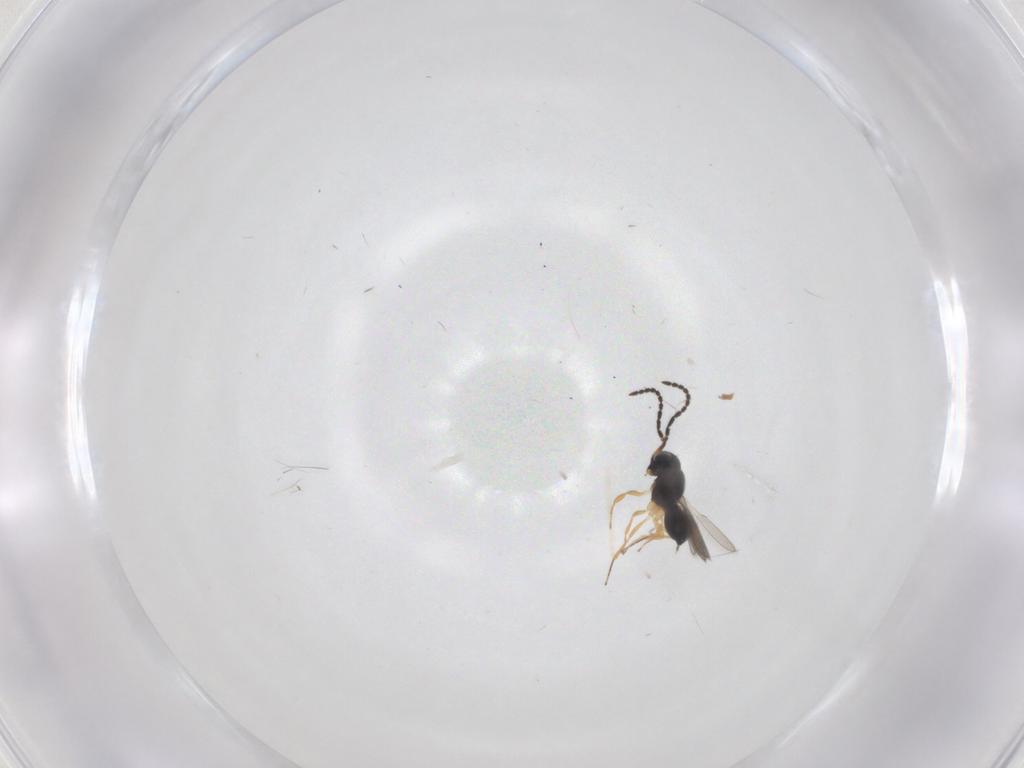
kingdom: Animalia
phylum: Arthropoda
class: Insecta
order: Hymenoptera
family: Scelionidae
